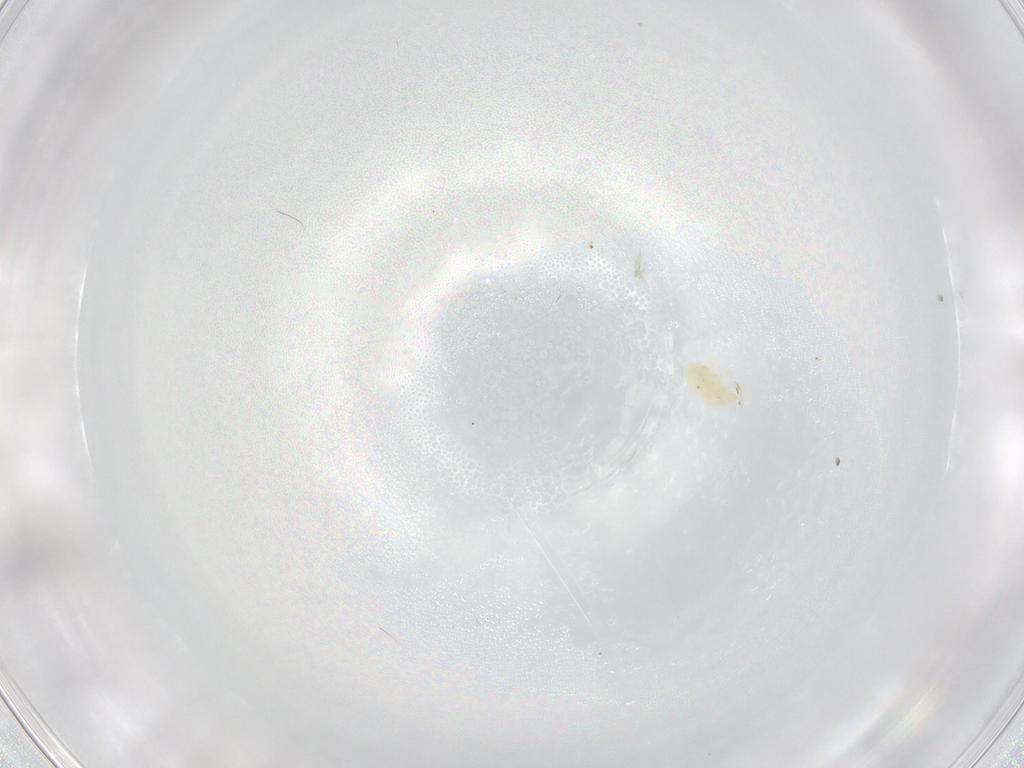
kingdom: Animalia
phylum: Arthropoda
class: Arachnida
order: Trombidiformes
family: Eupodidae
